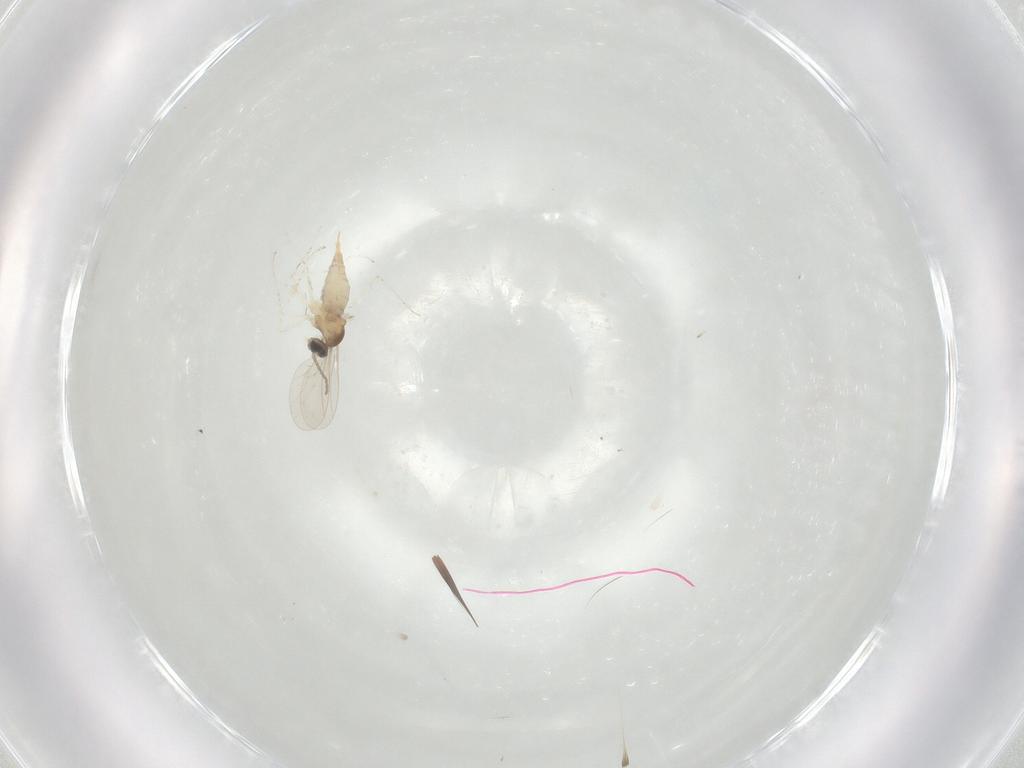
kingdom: Animalia
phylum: Arthropoda
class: Insecta
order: Diptera
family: Cecidomyiidae
